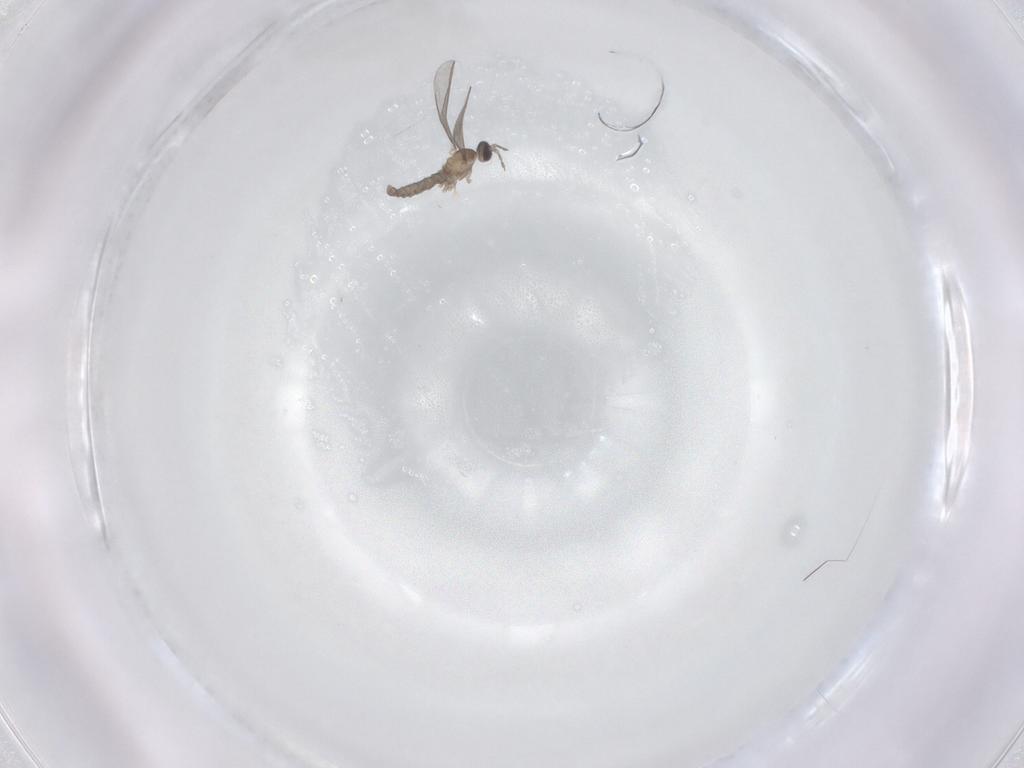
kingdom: Animalia
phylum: Arthropoda
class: Insecta
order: Diptera
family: Cecidomyiidae
